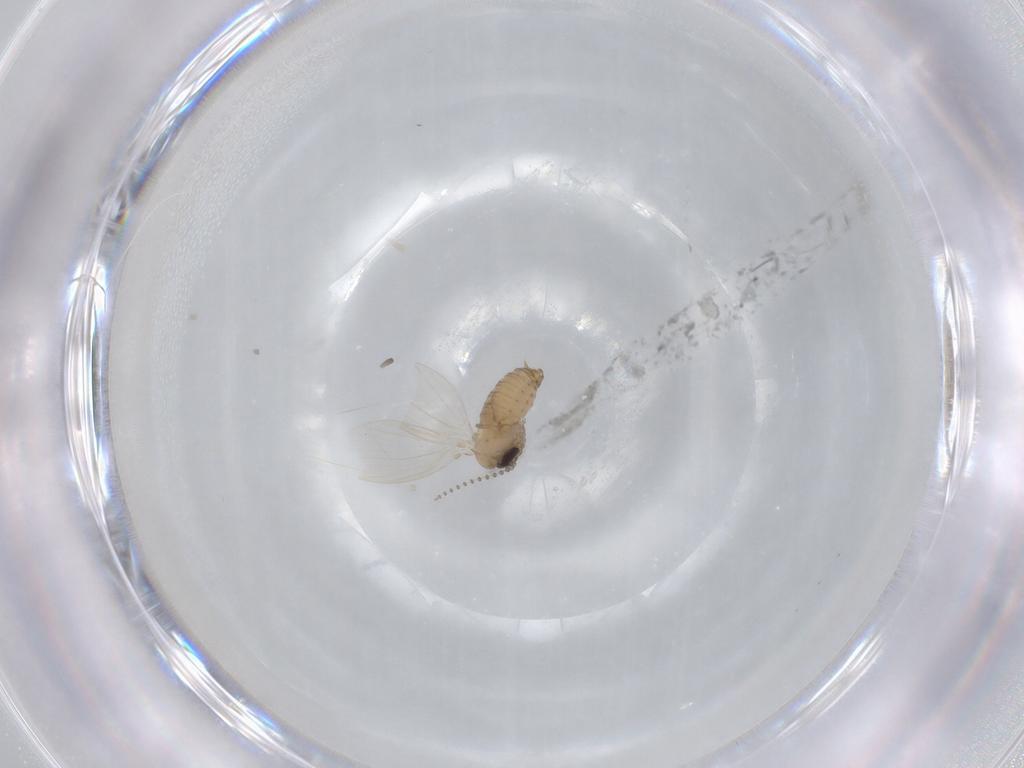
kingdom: Animalia
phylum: Arthropoda
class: Insecta
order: Diptera
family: Psychodidae
